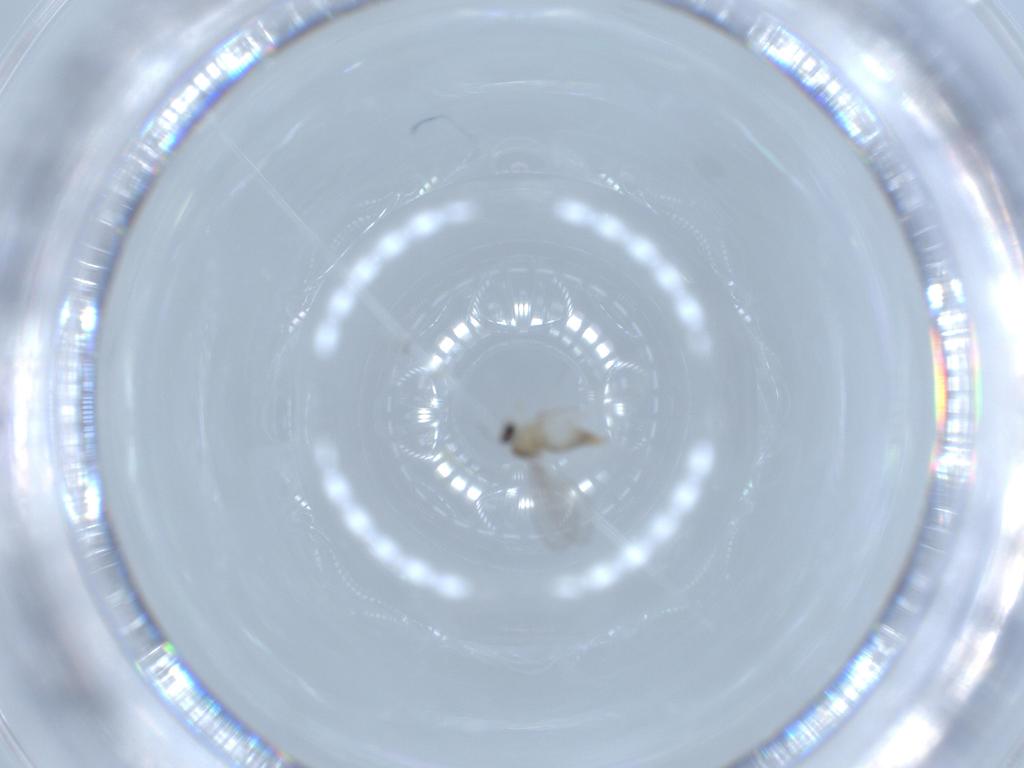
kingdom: Animalia
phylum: Arthropoda
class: Insecta
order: Diptera
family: Cecidomyiidae
